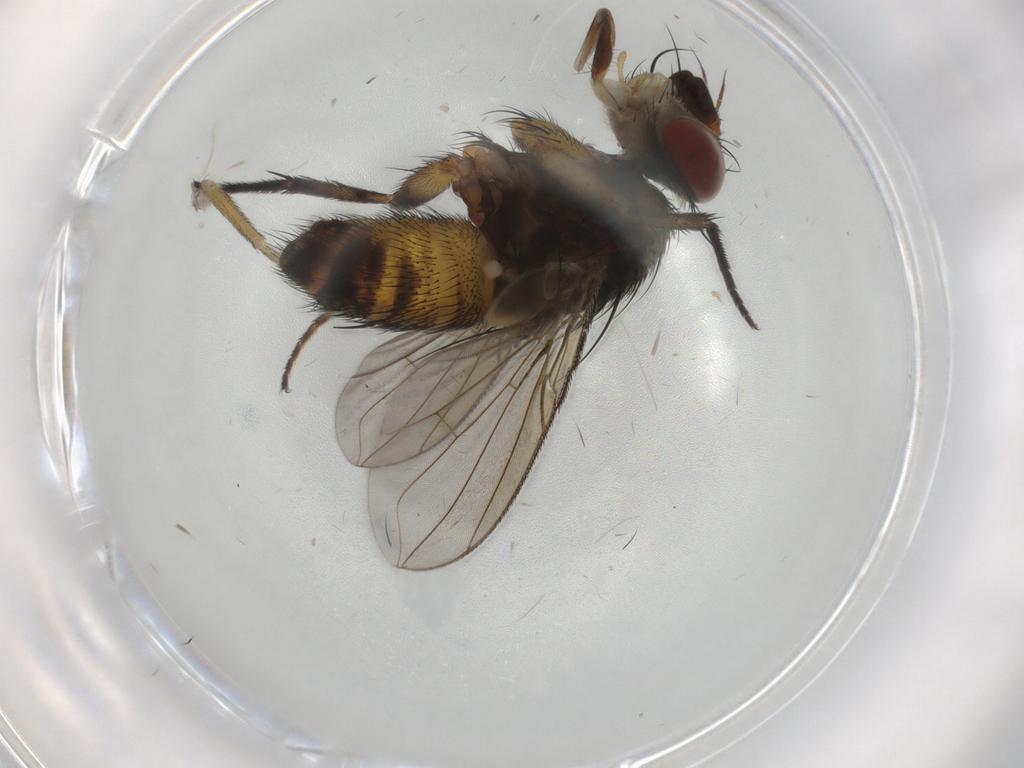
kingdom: Animalia
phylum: Arthropoda
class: Insecta
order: Diptera
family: Tachinidae
